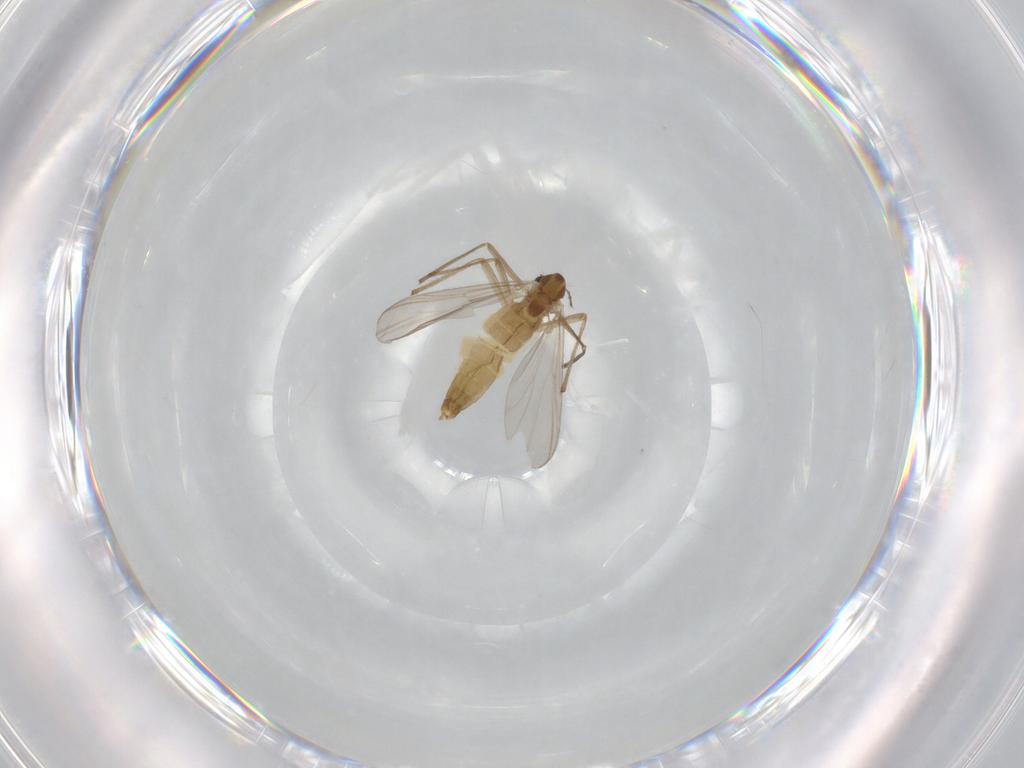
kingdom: Animalia
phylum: Arthropoda
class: Insecta
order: Diptera
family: Chironomidae
